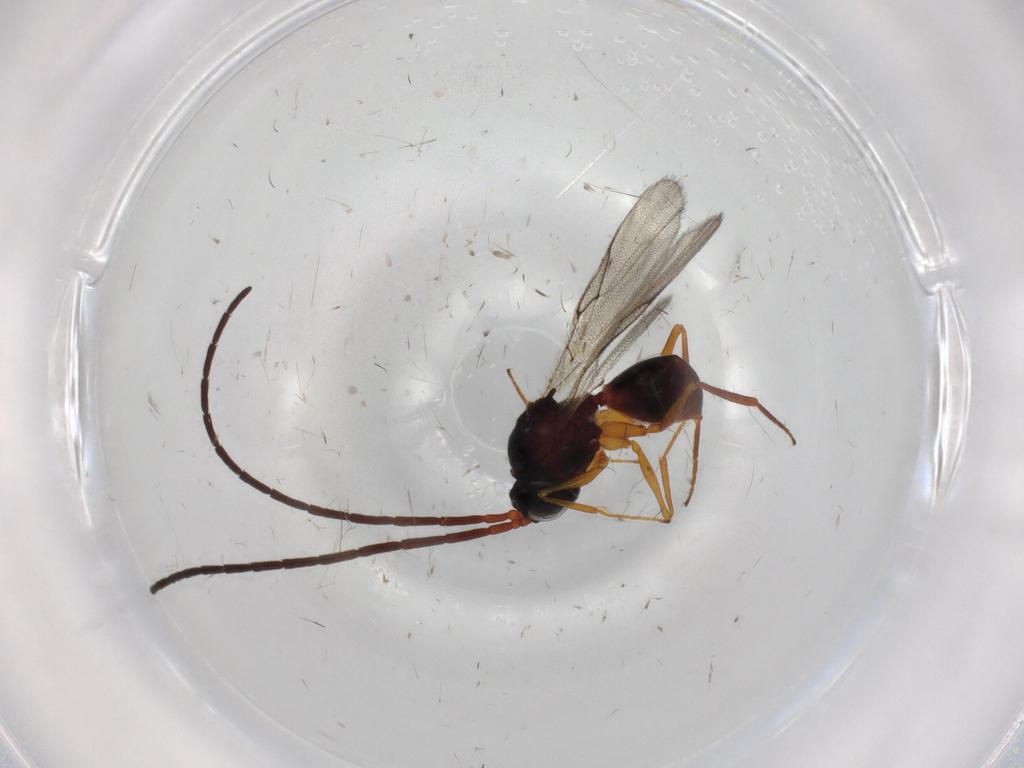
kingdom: Animalia
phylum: Arthropoda
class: Insecta
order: Hymenoptera
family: Figitidae
